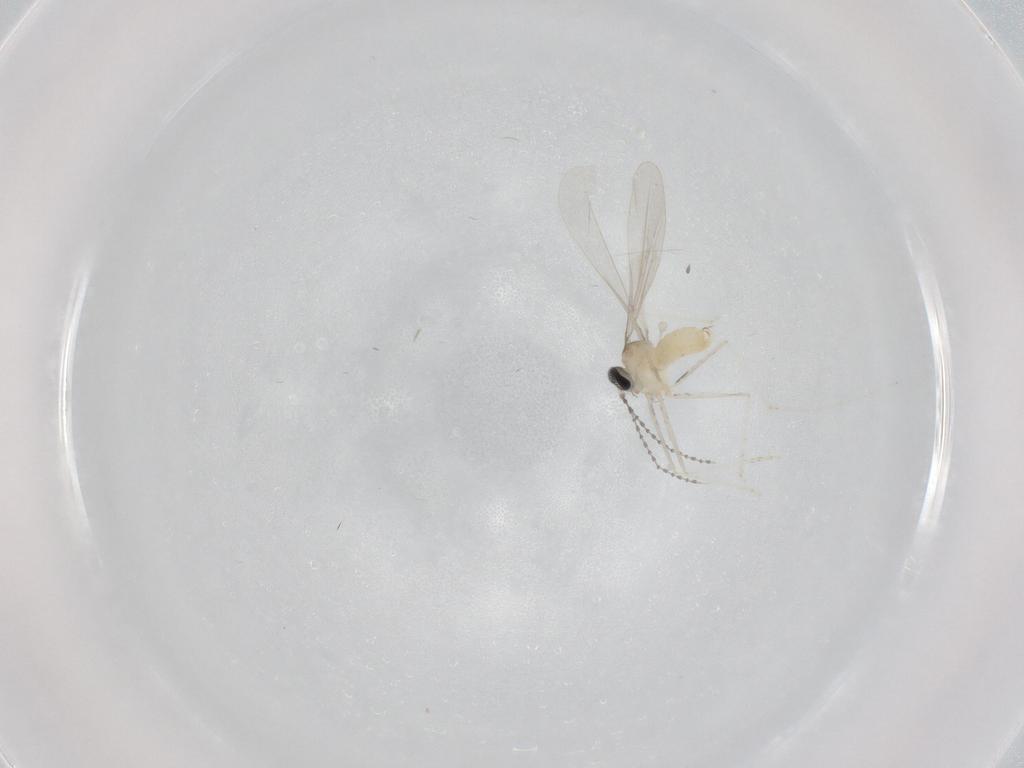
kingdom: Animalia
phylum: Arthropoda
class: Insecta
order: Diptera
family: Cecidomyiidae
